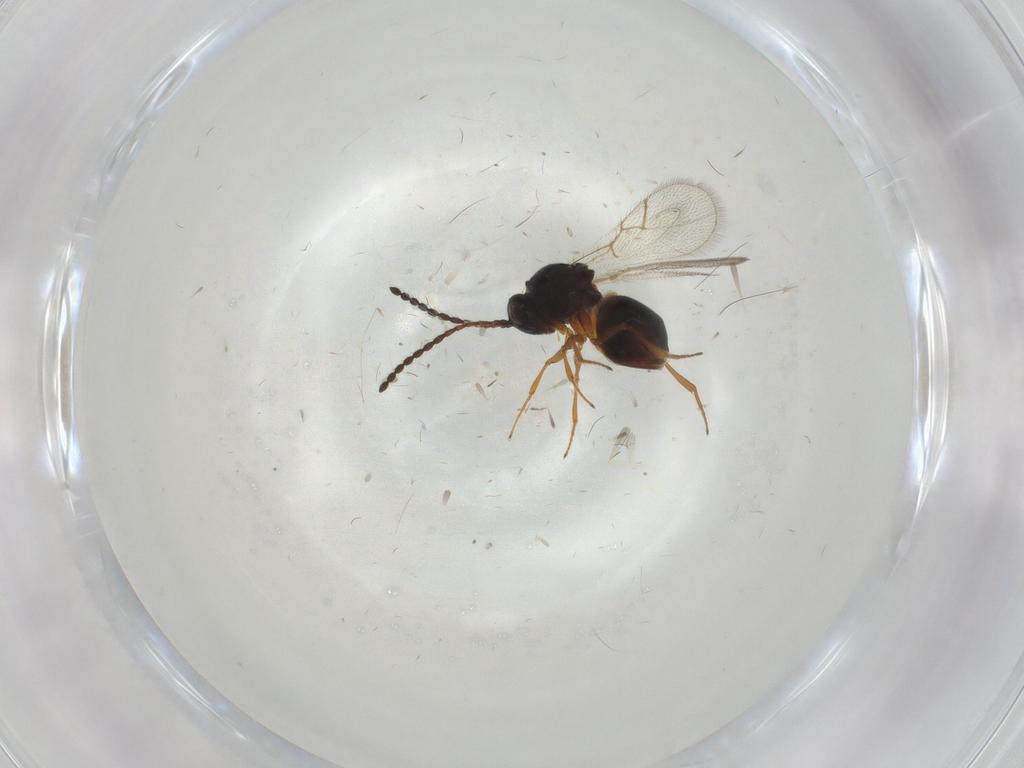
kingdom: Animalia
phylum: Arthropoda
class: Insecta
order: Hymenoptera
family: Figitidae
